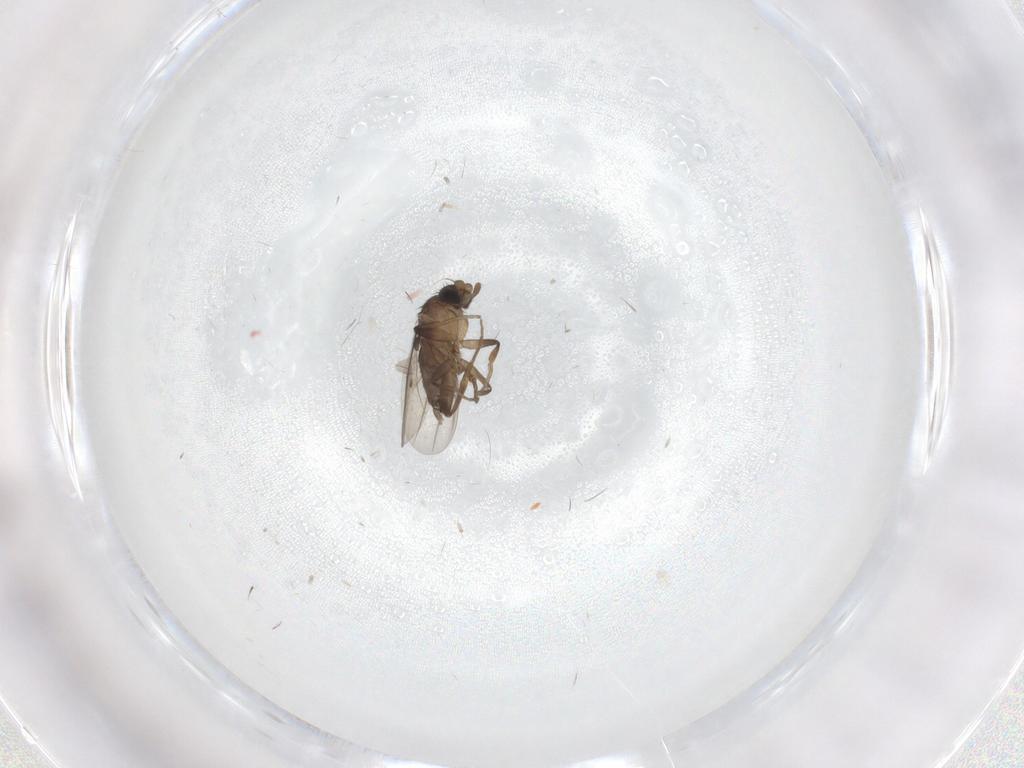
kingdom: Animalia
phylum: Arthropoda
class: Insecta
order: Diptera
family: Phoridae
